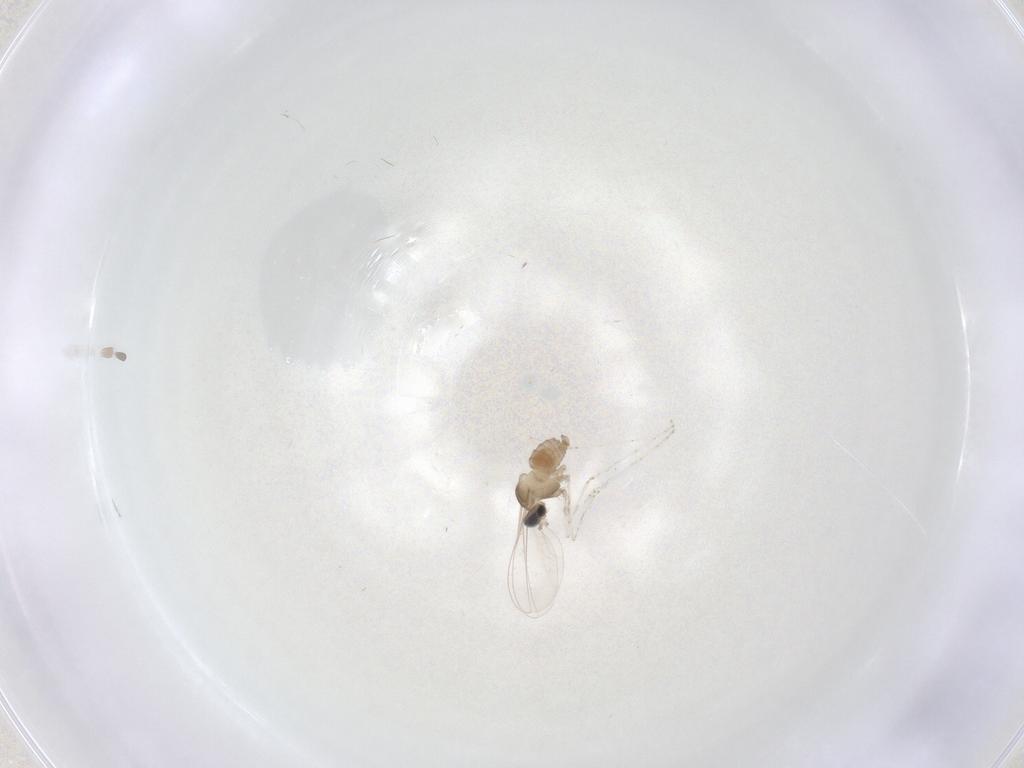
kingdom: Animalia
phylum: Arthropoda
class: Insecta
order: Diptera
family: Cecidomyiidae
